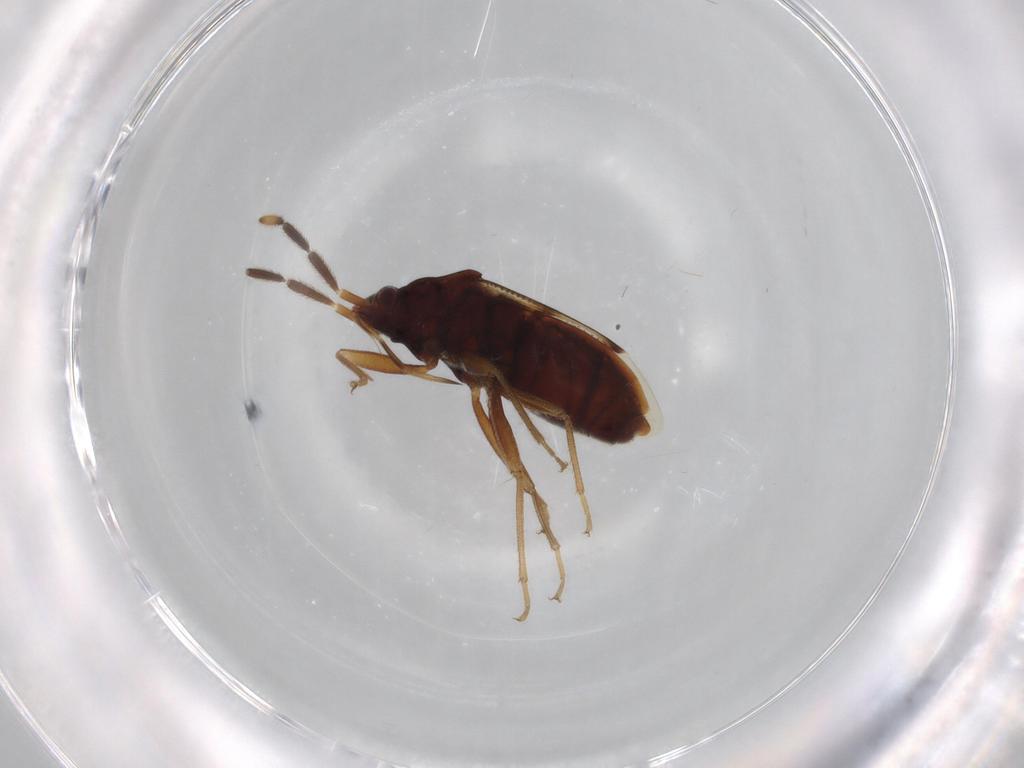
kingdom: Animalia
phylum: Arthropoda
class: Insecta
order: Hemiptera
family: Rhyparochromidae
